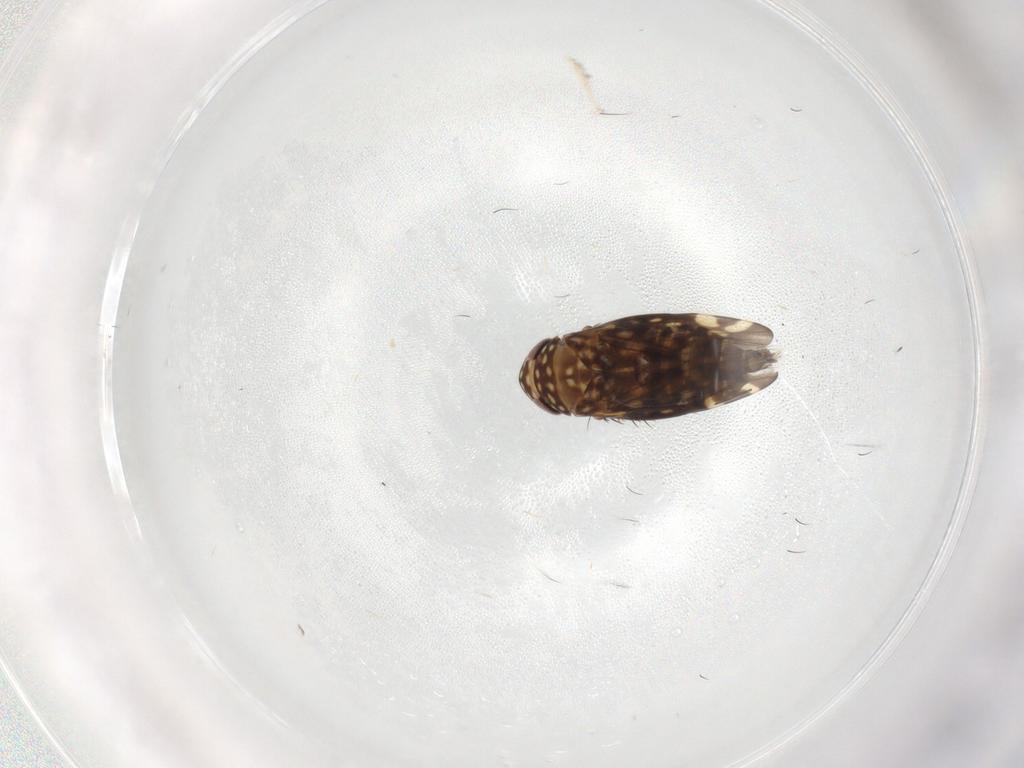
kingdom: Animalia
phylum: Arthropoda
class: Insecta
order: Hemiptera
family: Cicadellidae
